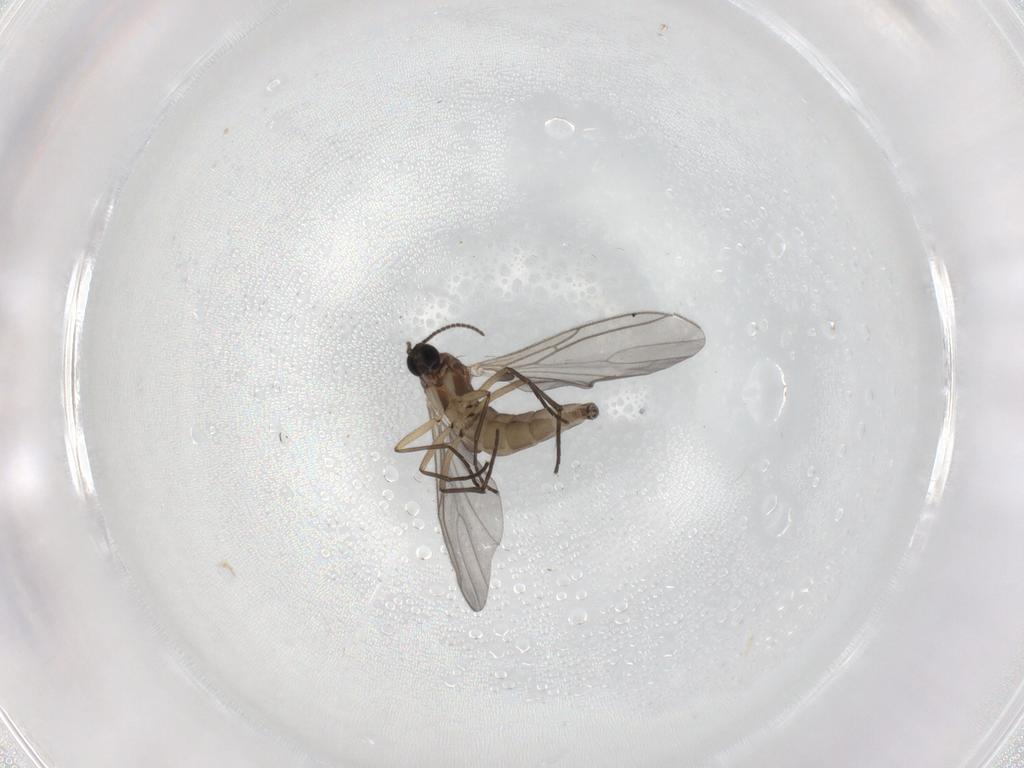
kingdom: Animalia
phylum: Arthropoda
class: Insecta
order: Diptera
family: Sciaridae
